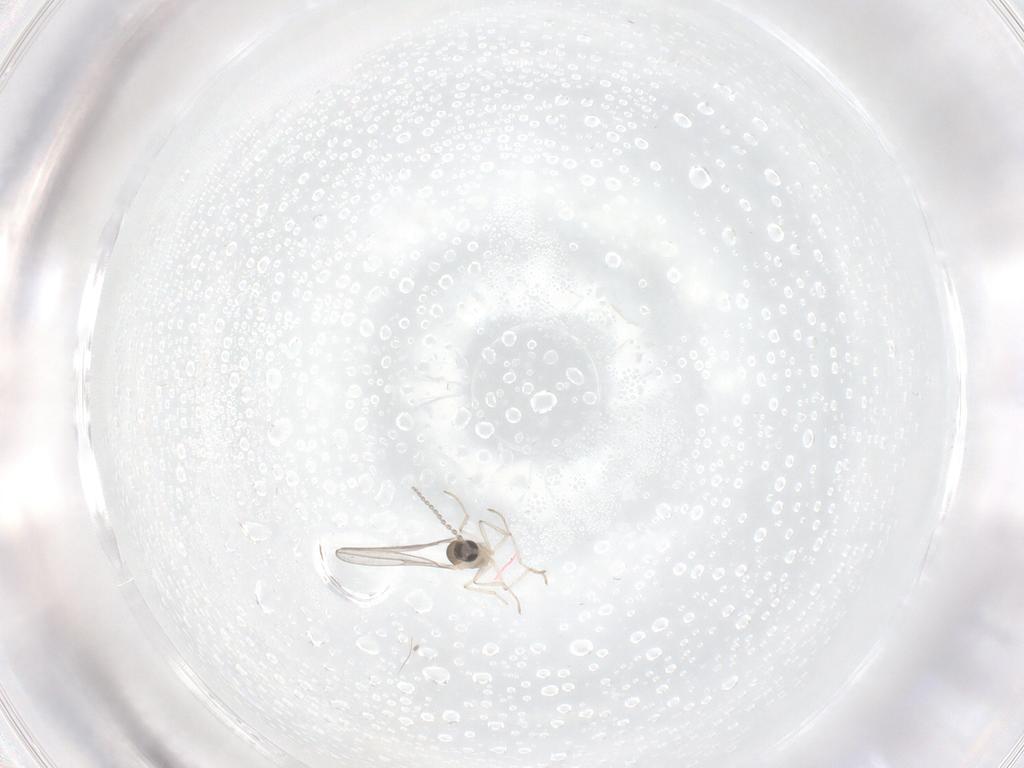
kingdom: Animalia
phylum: Arthropoda
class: Insecta
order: Diptera
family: Cecidomyiidae
